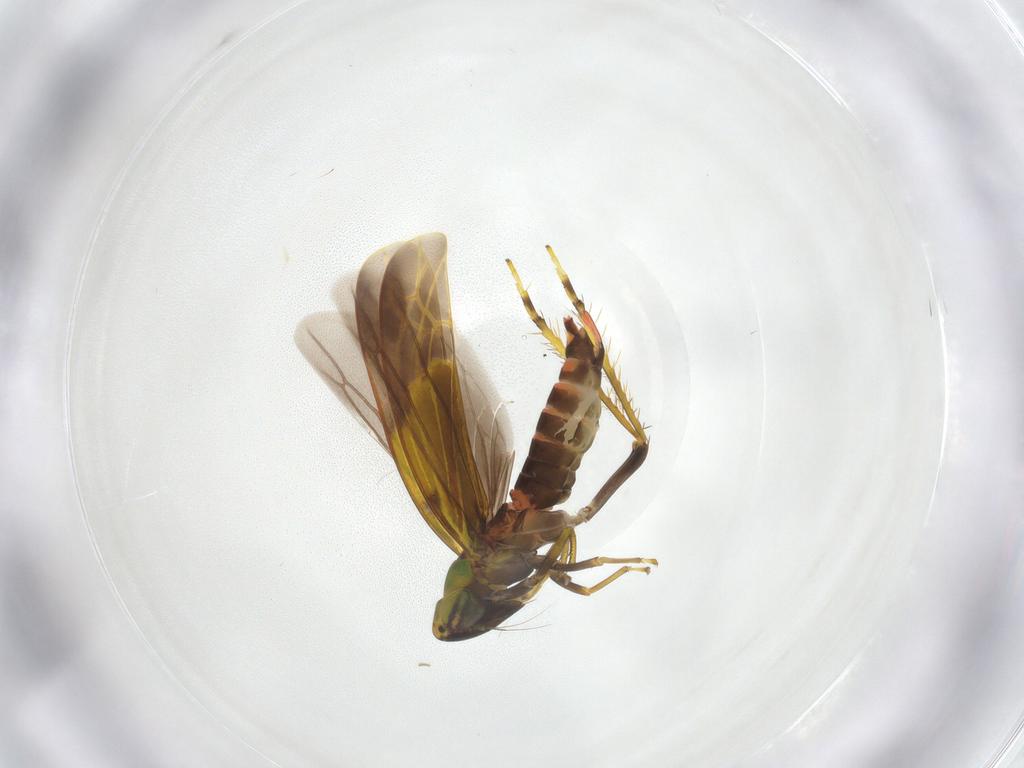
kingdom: Animalia
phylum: Arthropoda
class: Insecta
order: Hemiptera
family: Cicadellidae
